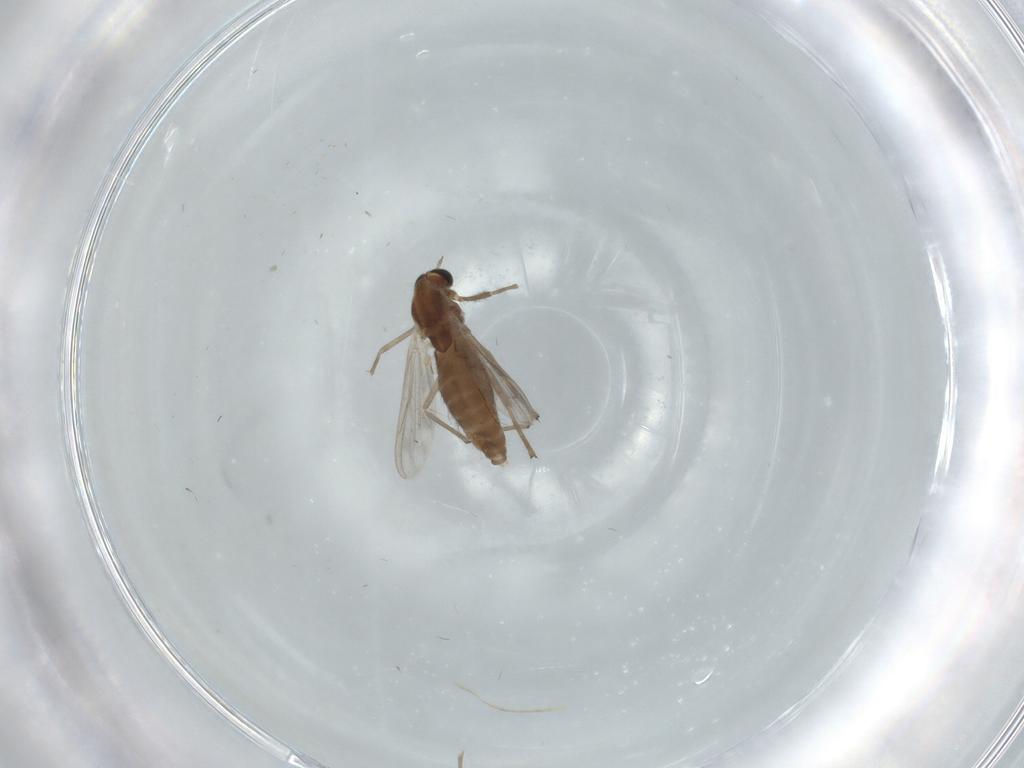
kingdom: Animalia
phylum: Arthropoda
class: Insecta
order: Diptera
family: Chironomidae
